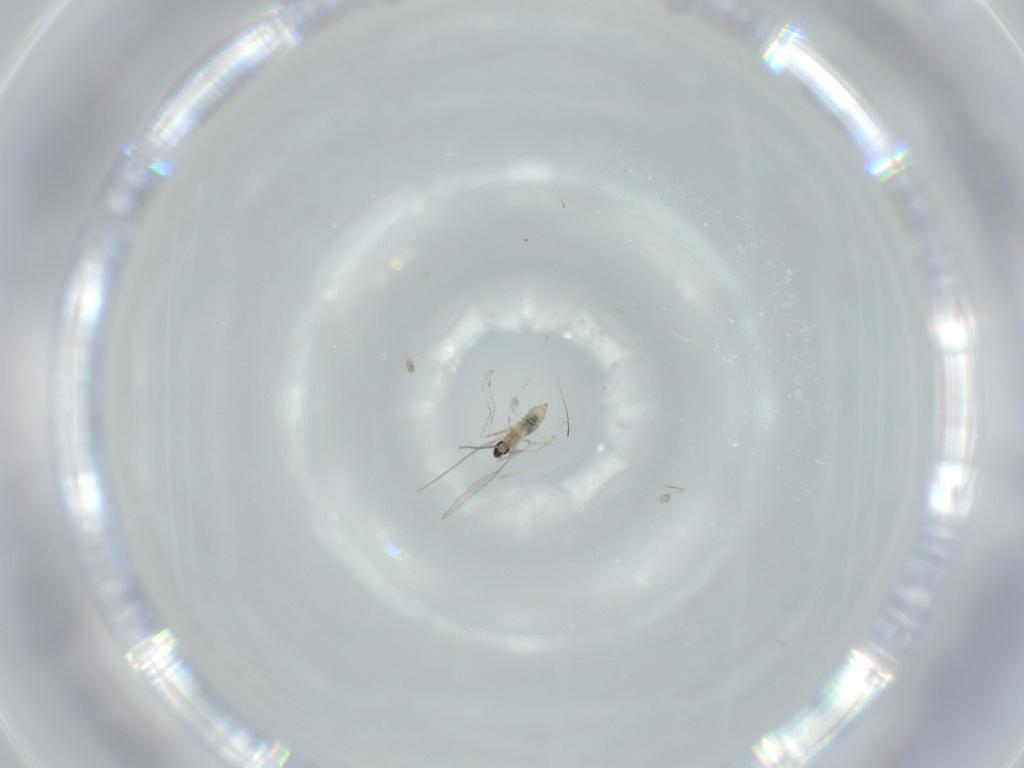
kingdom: Animalia
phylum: Arthropoda
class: Insecta
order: Diptera
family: Cecidomyiidae
